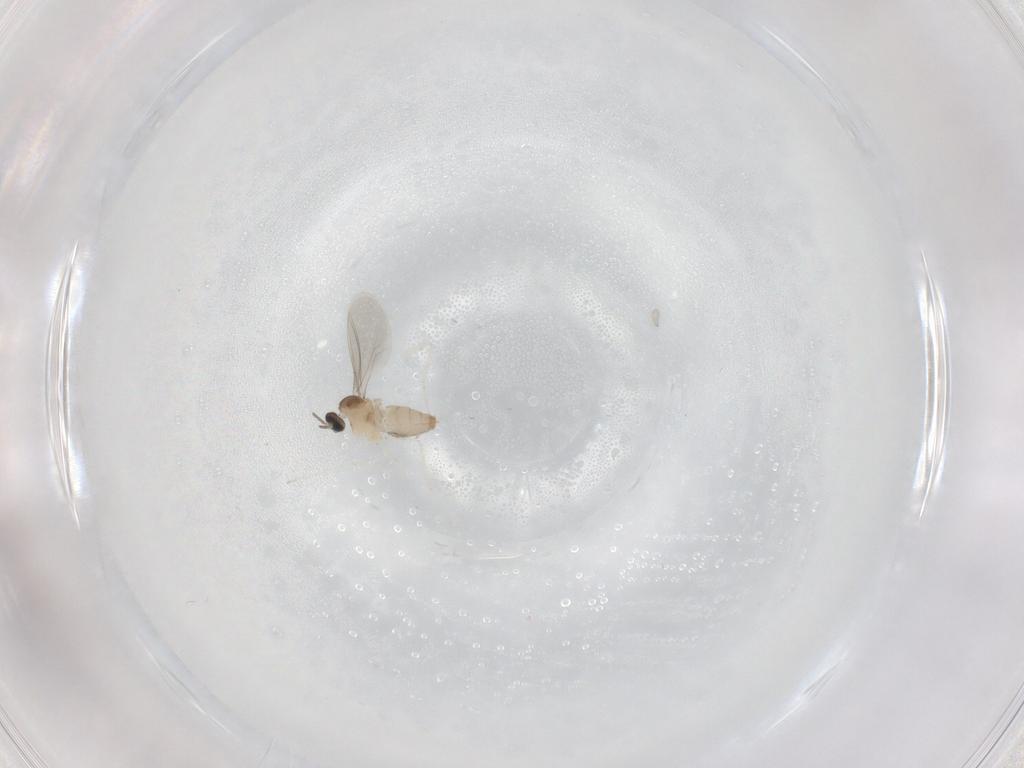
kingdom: Animalia
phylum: Arthropoda
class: Insecta
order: Diptera
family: Cecidomyiidae
